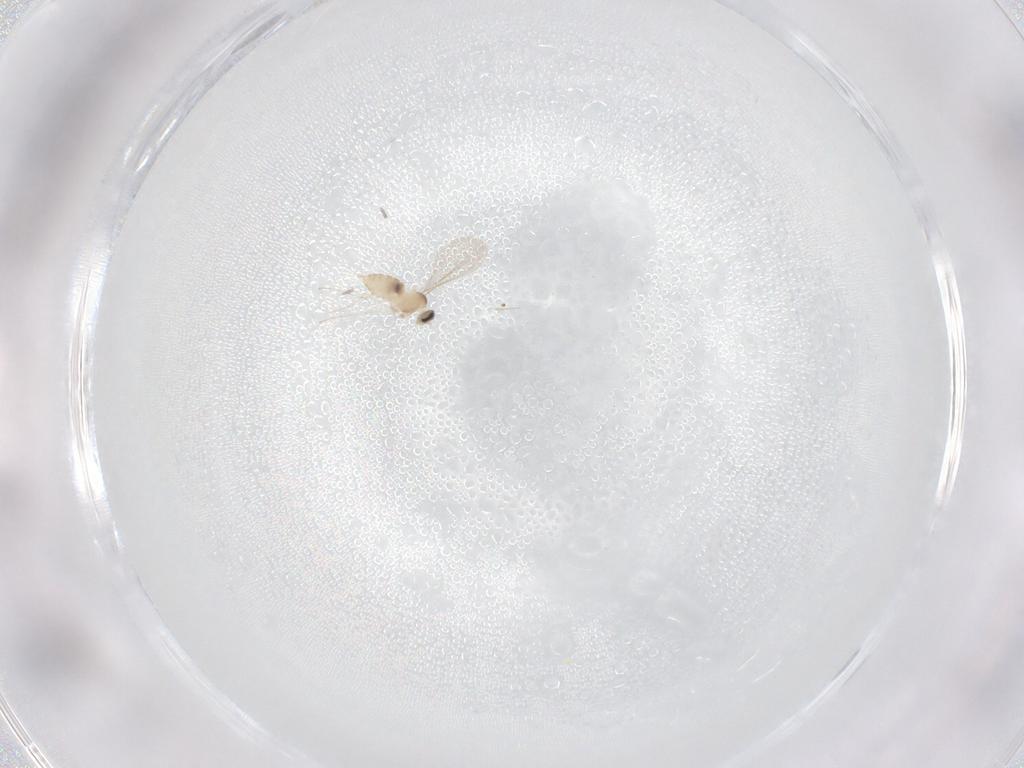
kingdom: Animalia
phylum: Arthropoda
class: Insecta
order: Diptera
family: Cecidomyiidae
